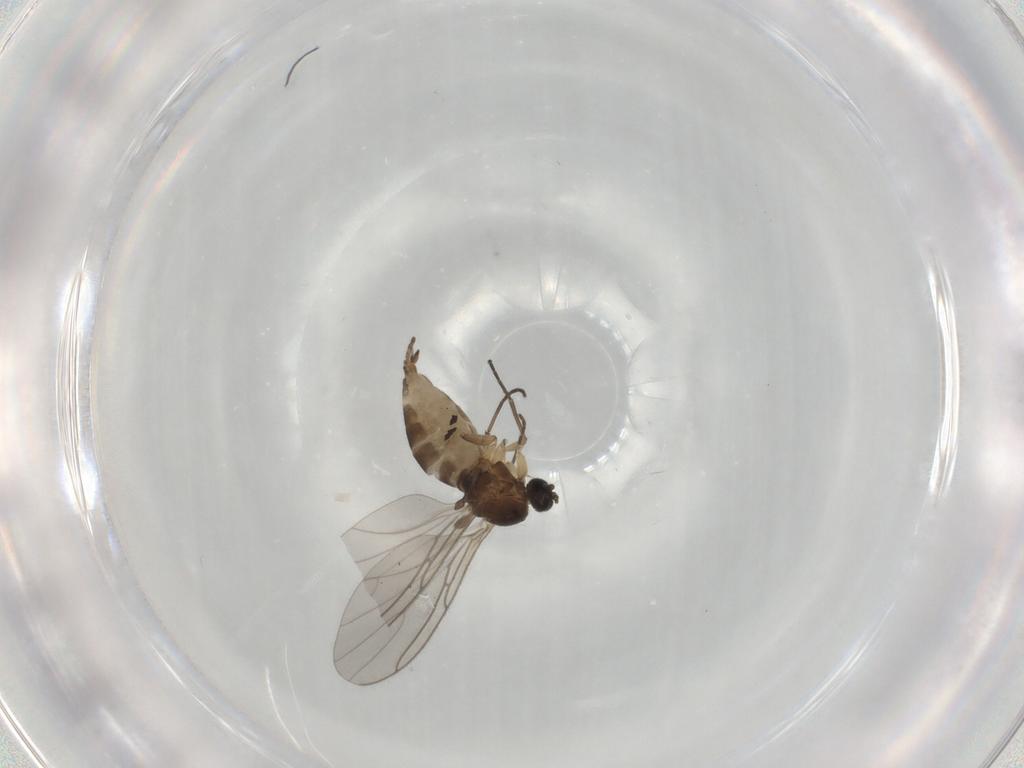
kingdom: Animalia
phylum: Arthropoda
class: Insecta
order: Diptera
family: Sciaridae
